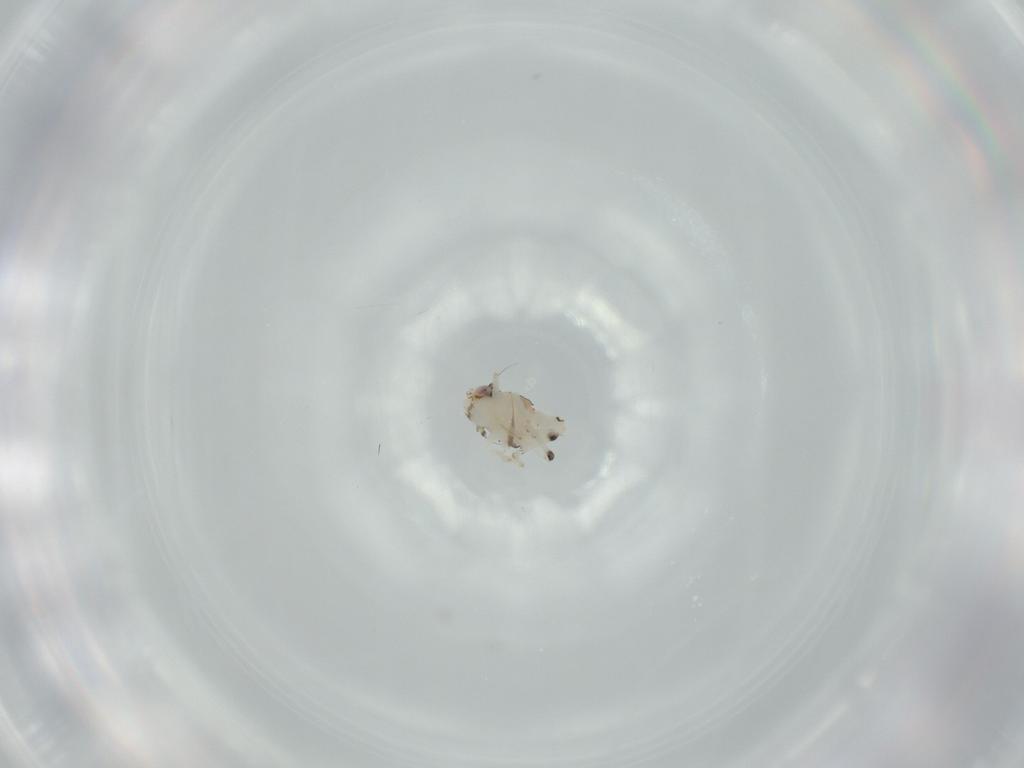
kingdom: Animalia
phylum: Arthropoda
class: Insecta
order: Hemiptera
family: Nogodinidae
